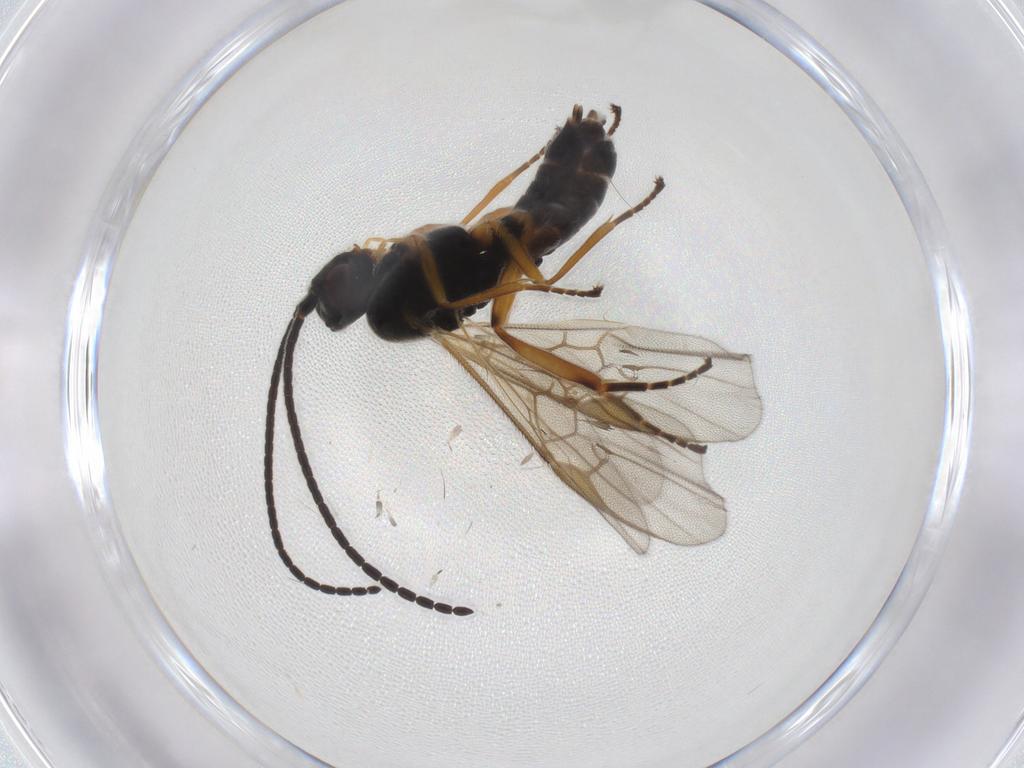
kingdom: Animalia
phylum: Arthropoda
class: Insecta
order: Hymenoptera
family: Braconidae
